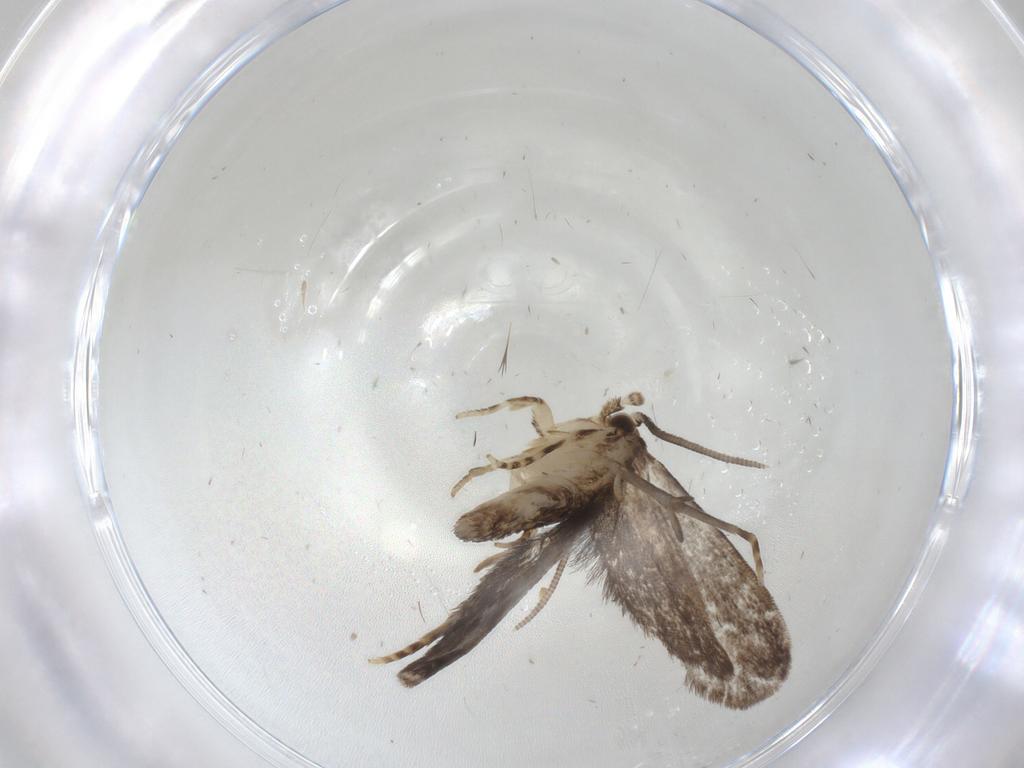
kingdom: Animalia
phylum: Arthropoda
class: Insecta
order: Lepidoptera
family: Dryadaulidae
